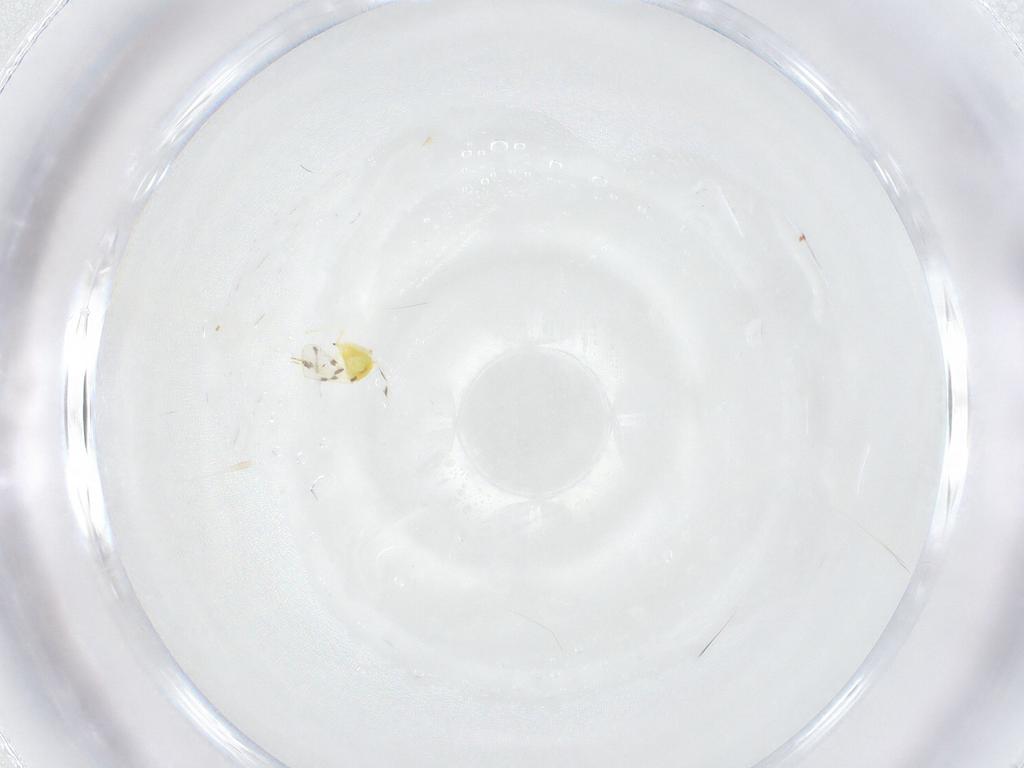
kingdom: Animalia
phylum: Arthropoda
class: Insecta
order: Hemiptera
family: Aleyrodidae
